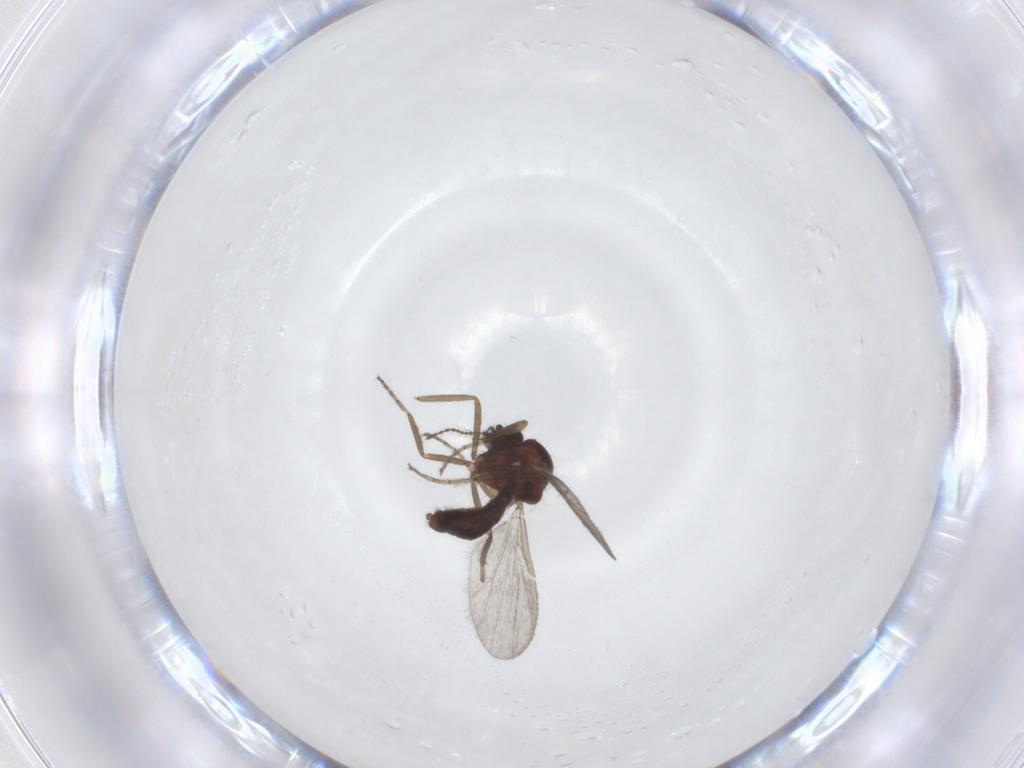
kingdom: Animalia
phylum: Arthropoda
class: Insecta
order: Diptera
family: Ceratopogonidae
